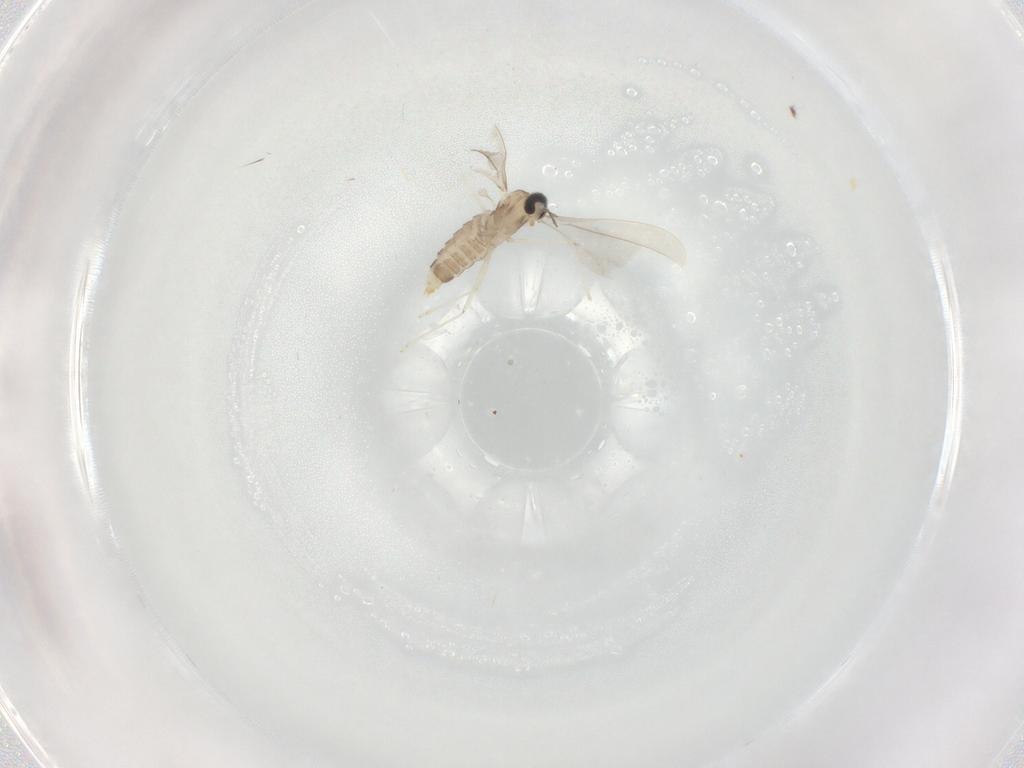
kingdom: Animalia
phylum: Arthropoda
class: Insecta
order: Diptera
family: Cecidomyiidae
